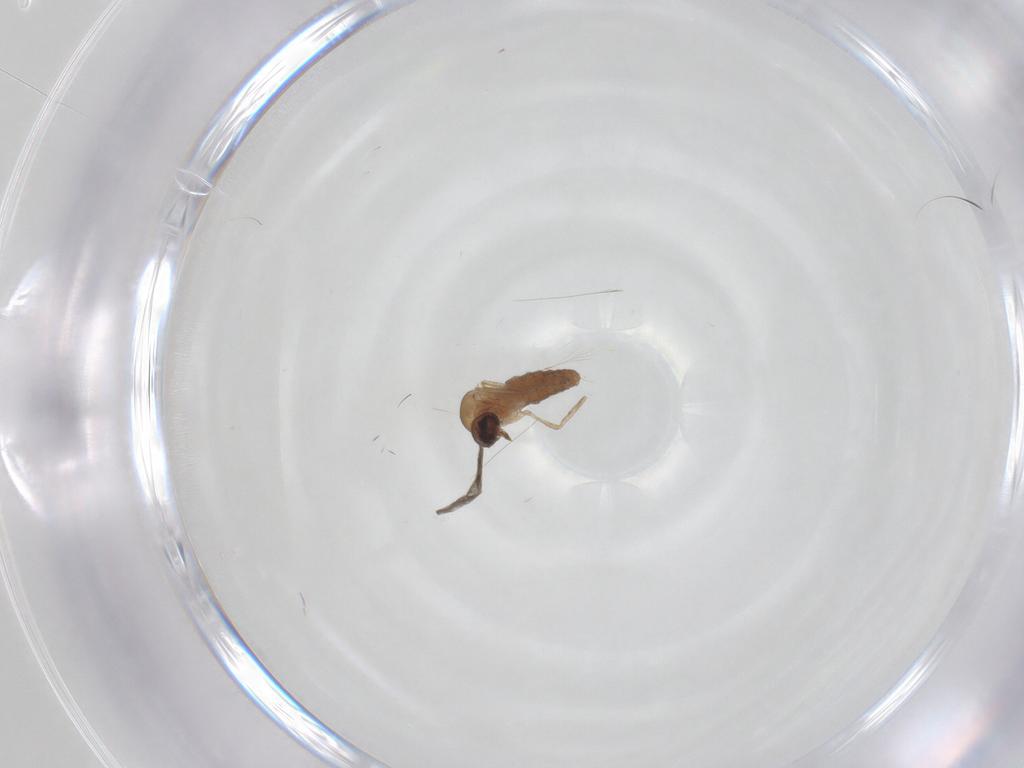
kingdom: Animalia
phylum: Arthropoda
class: Insecta
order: Diptera
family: Ceratopogonidae
